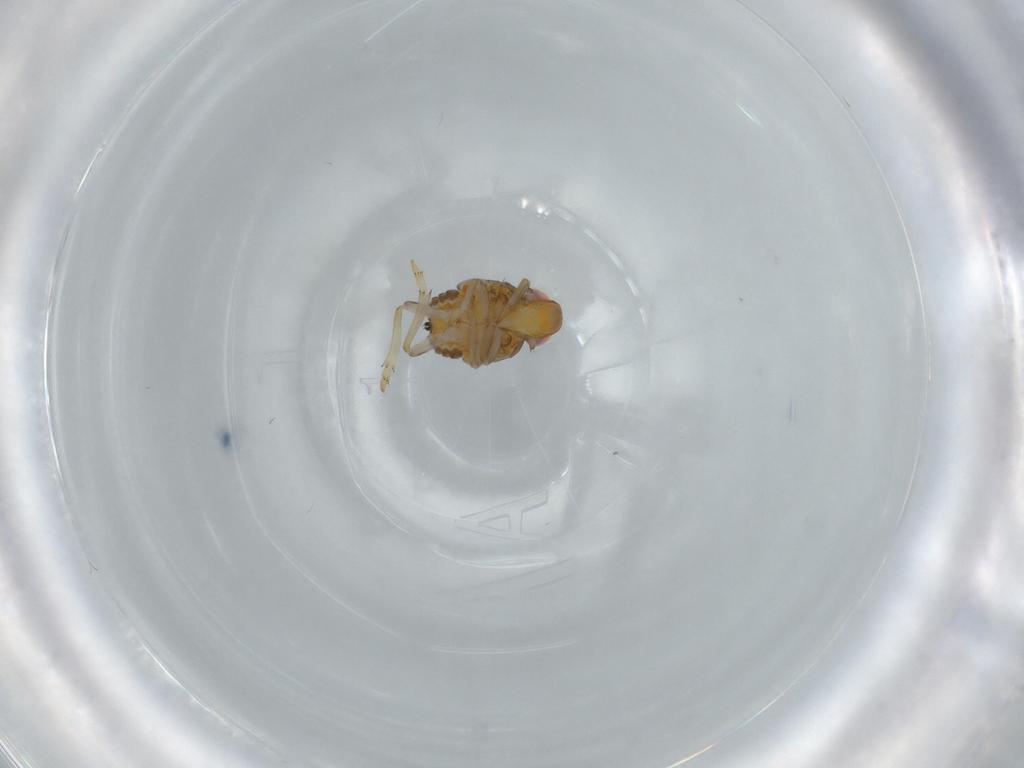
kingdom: Animalia
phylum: Arthropoda
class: Insecta
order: Hemiptera
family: Issidae
